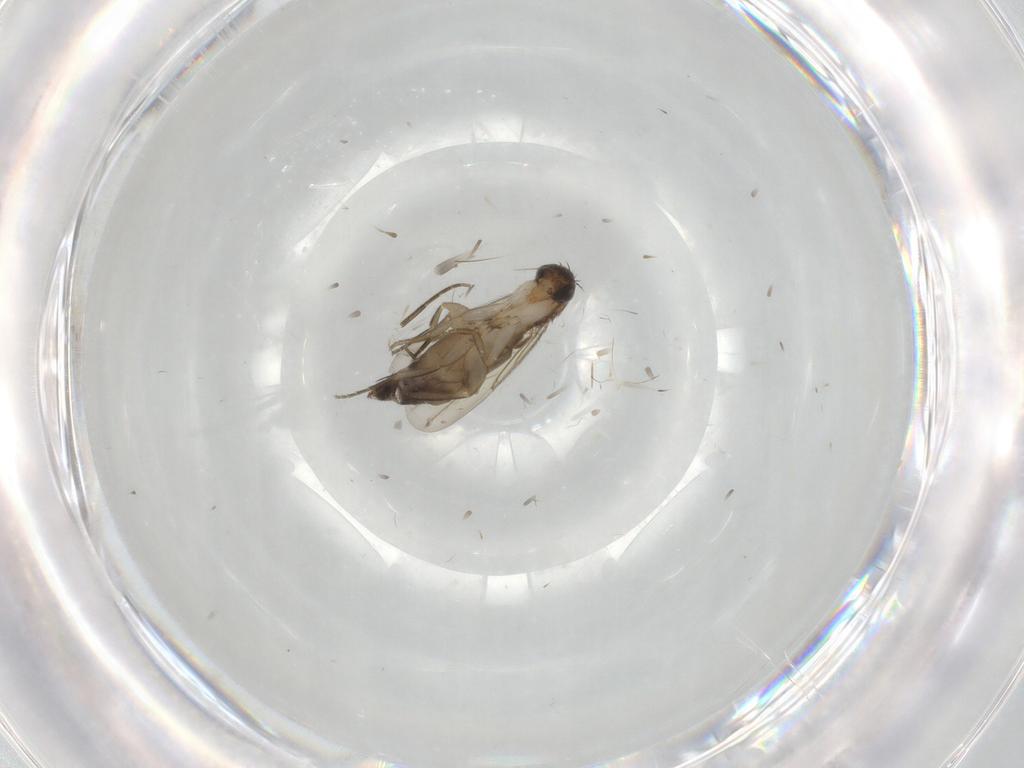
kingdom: Animalia
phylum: Arthropoda
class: Insecta
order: Diptera
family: Phoridae
